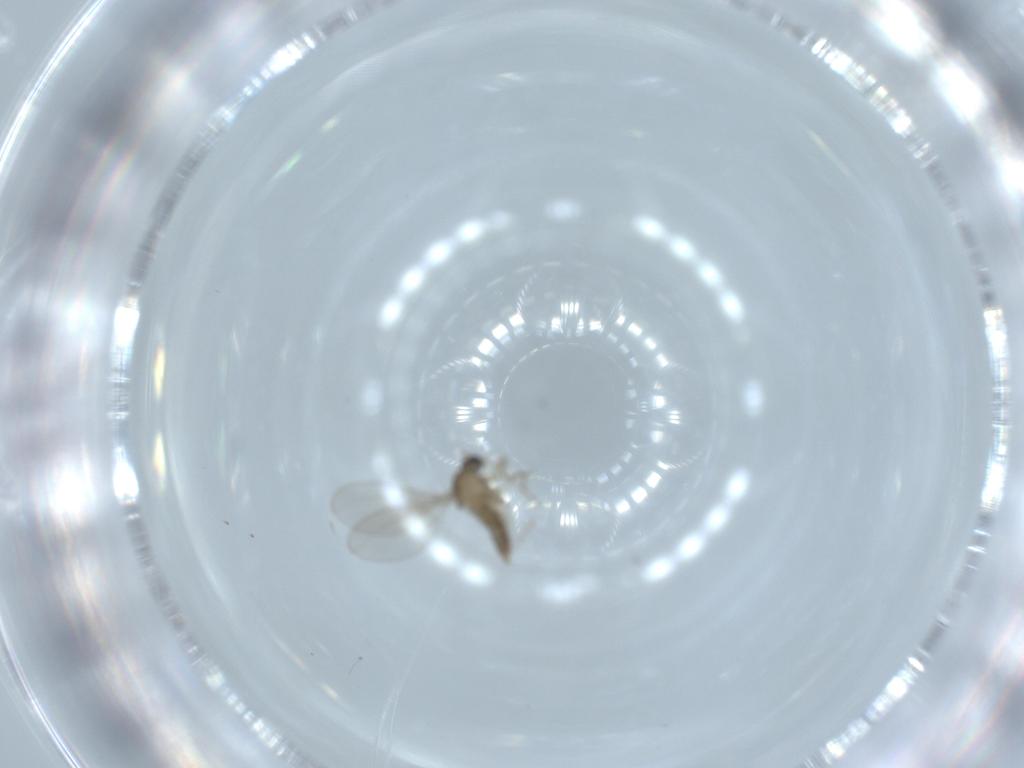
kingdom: Animalia
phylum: Arthropoda
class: Insecta
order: Diptera
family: Cecidomyiidae
